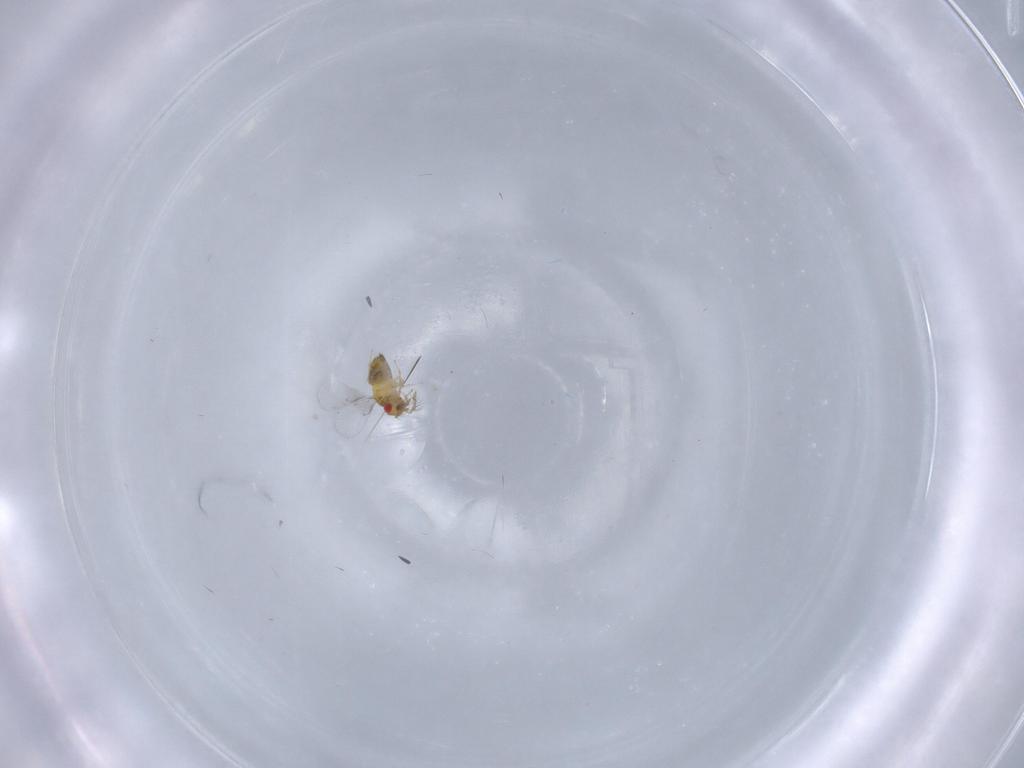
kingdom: Animalia
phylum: Arthropoda
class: Insecta
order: Hymenoptera
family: Trichogrammatidae
